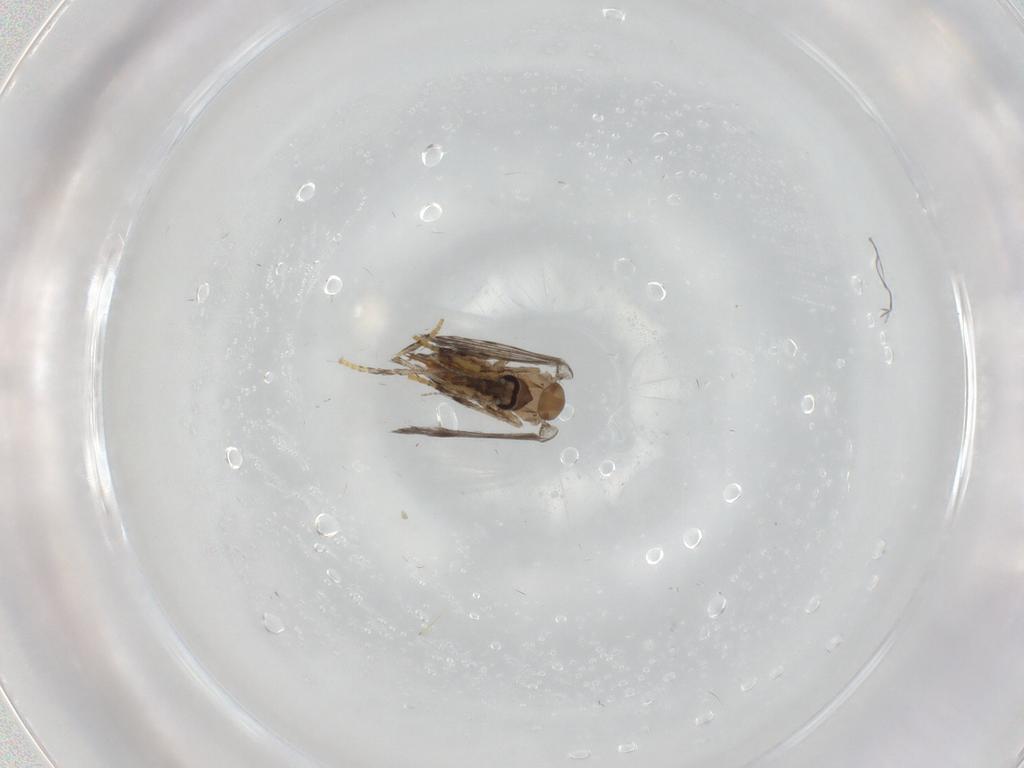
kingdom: Animalia
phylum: Arthropoda
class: Insecta
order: Diptera
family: Psychodidae
